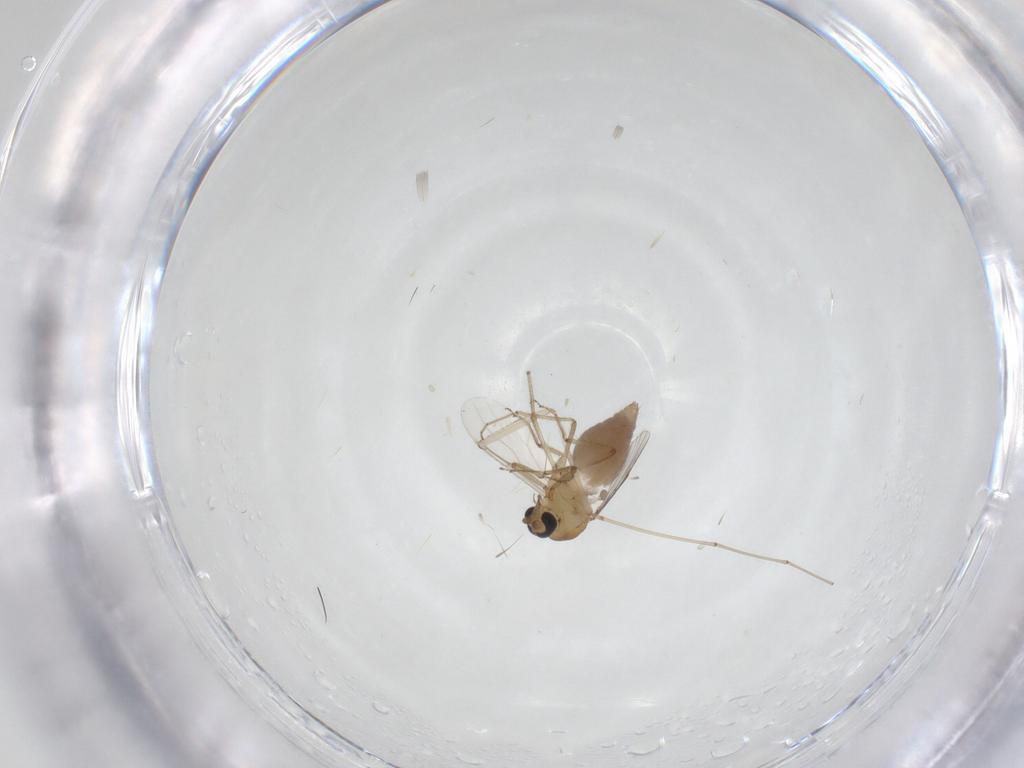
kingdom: Animalia
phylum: Arthropoda
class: Insecta
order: Diptera
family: Ceratopogonidae
